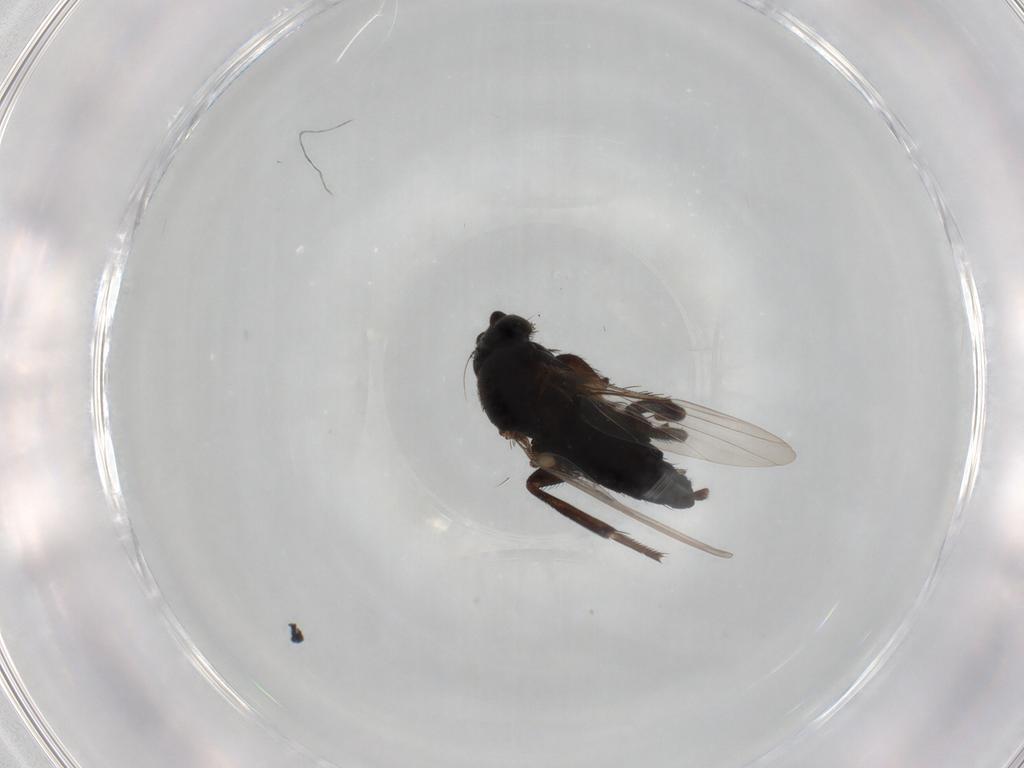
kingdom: Animalia
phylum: Arthropoda
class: Insecta
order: Diptera
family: Phoridae
